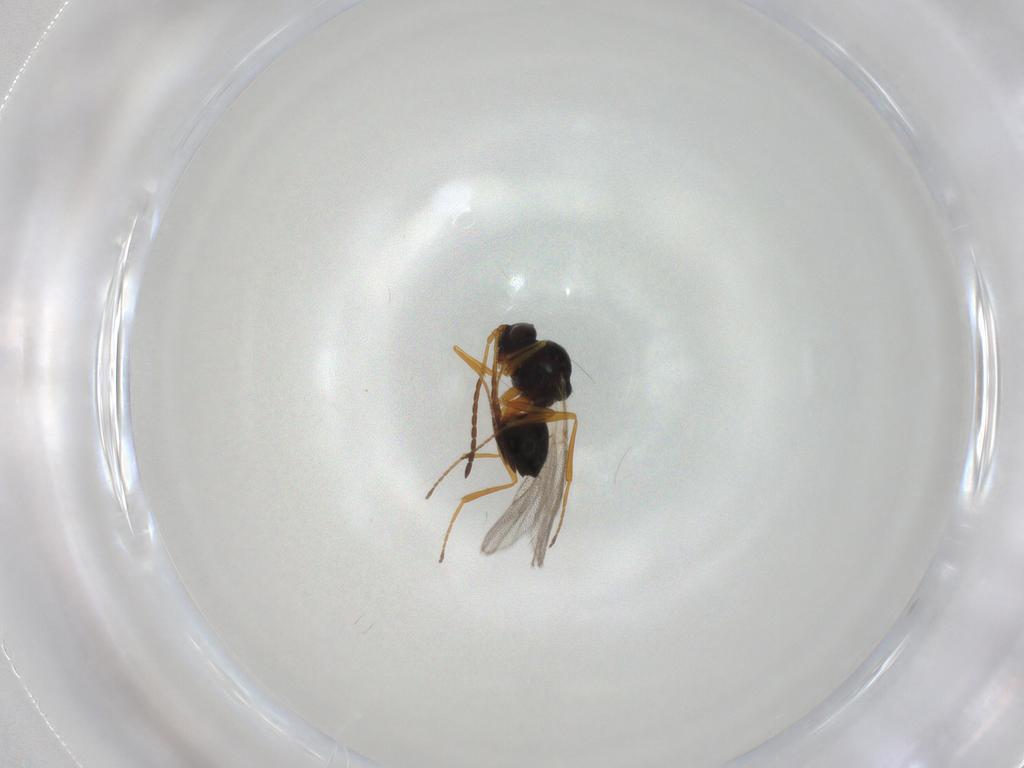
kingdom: Animalia
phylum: Arthropoda
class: Insecta
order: Hymenoptera
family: Figitidae
